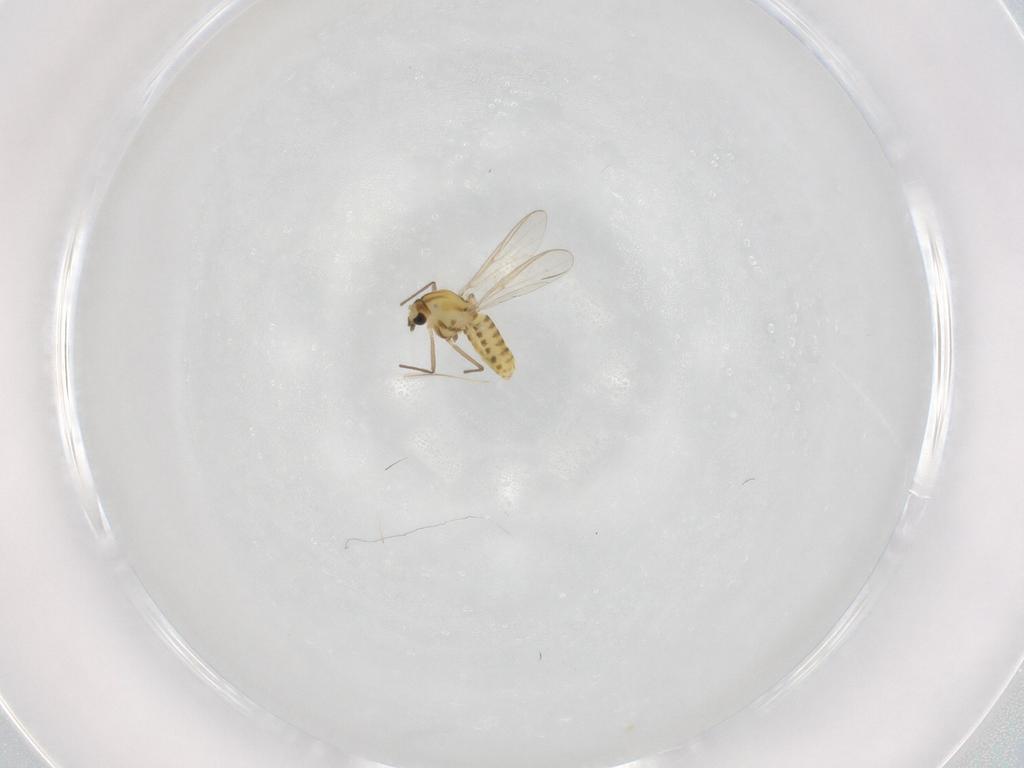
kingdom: Animalia
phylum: Arthropoda
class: Insecta
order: Diptera
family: Chironomidae
